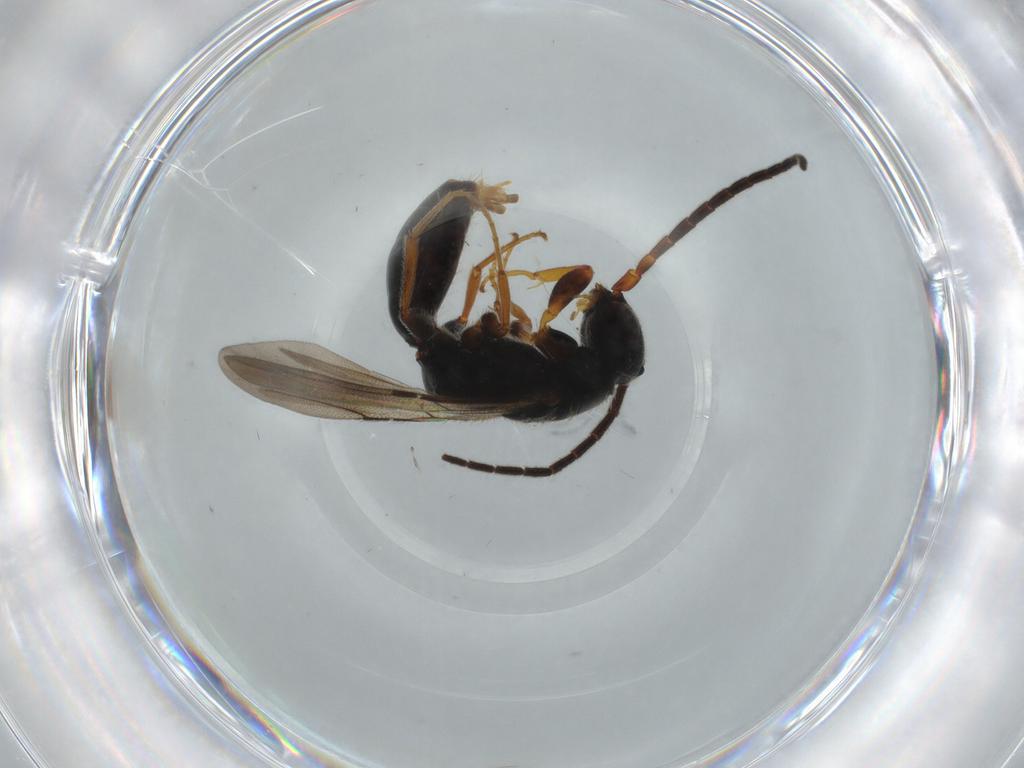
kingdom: Animalia
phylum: Arthropoda
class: Insecta
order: Hymenoptera
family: Bethylidae
